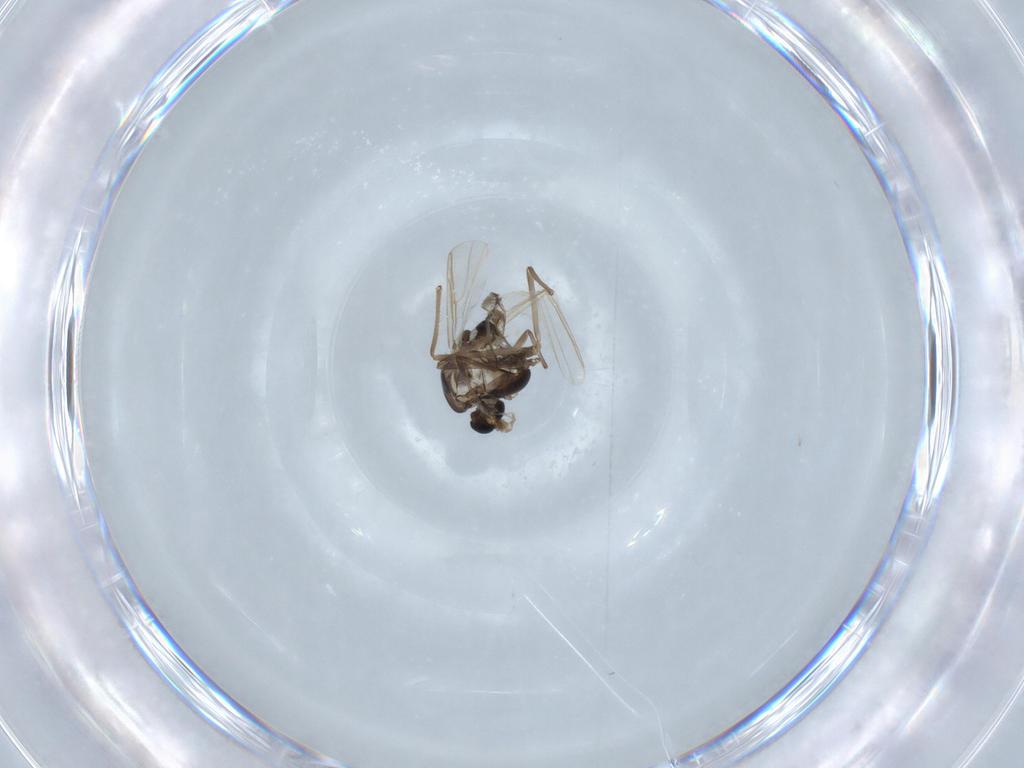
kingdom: Animalia
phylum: Arthropoda
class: Insecta
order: Diptera
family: Chironomidae
